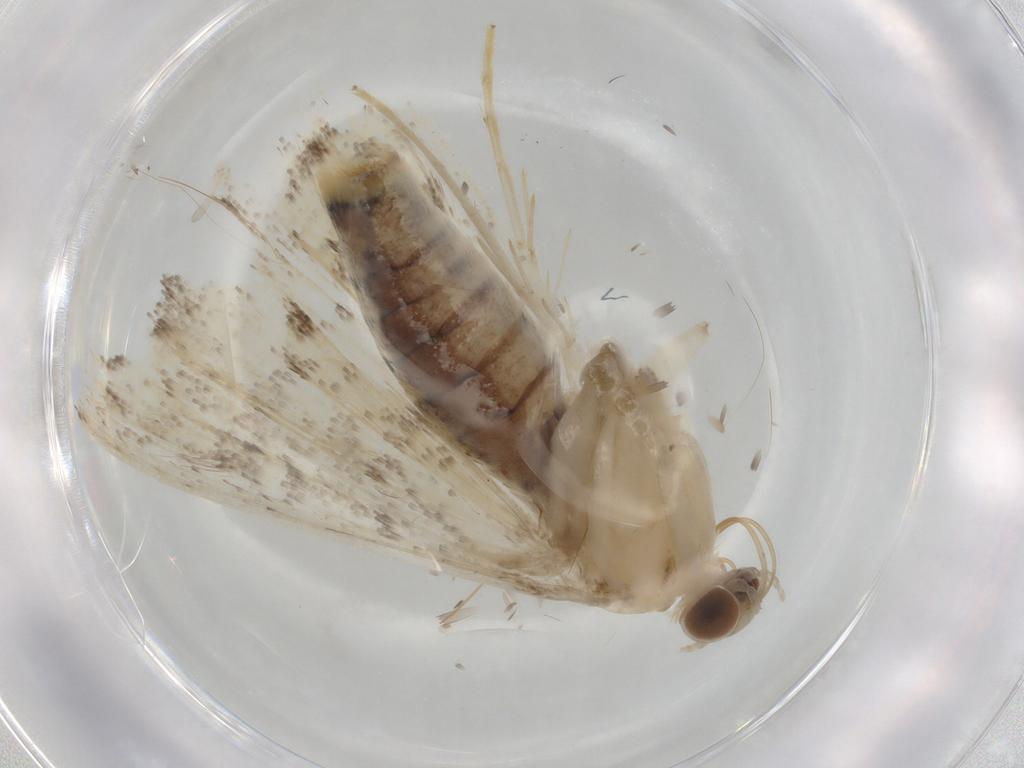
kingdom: Animalia
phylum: Arthropoda
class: Insecta
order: Lepidoptera
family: Crambidae
